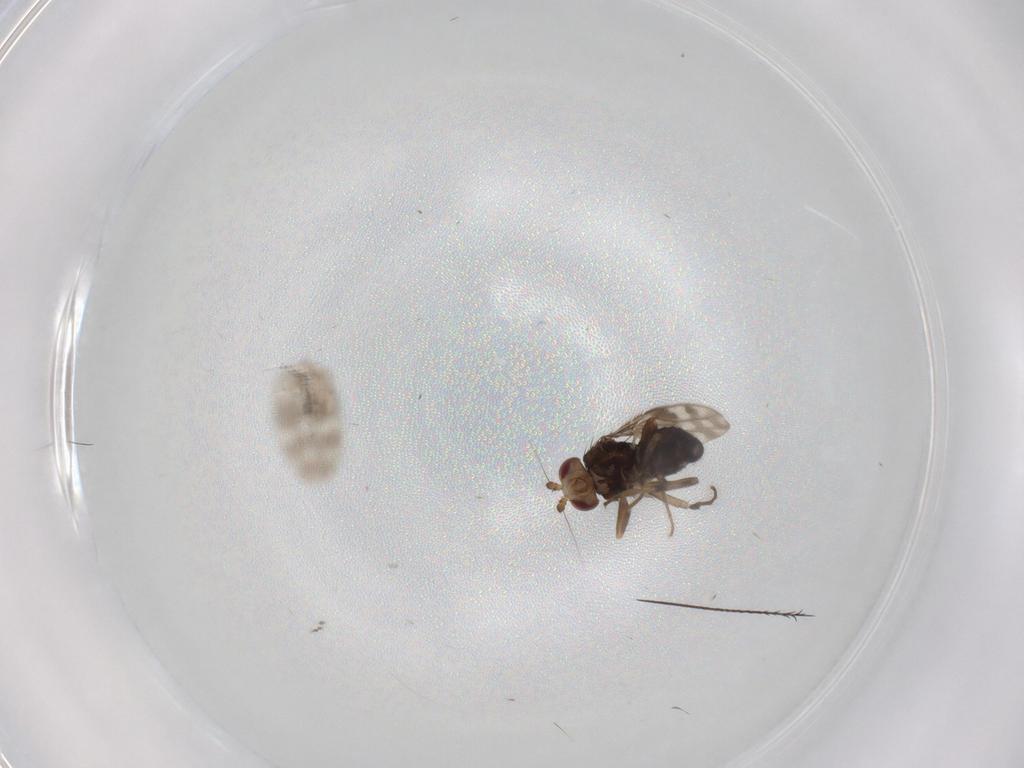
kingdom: Animalia
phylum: Arthropoda
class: Insecta
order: Diptera
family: Sphaeroceridae
